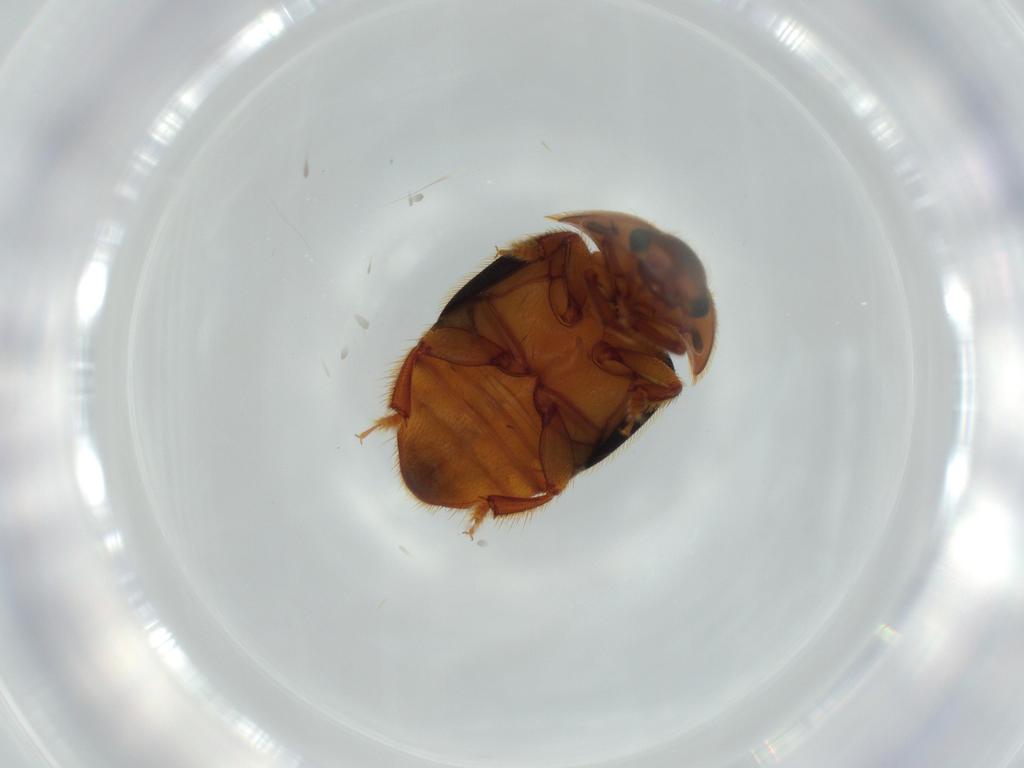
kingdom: Animalia
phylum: Arthropoda
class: Insecta
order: Coleoptera
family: Nitidulidae
